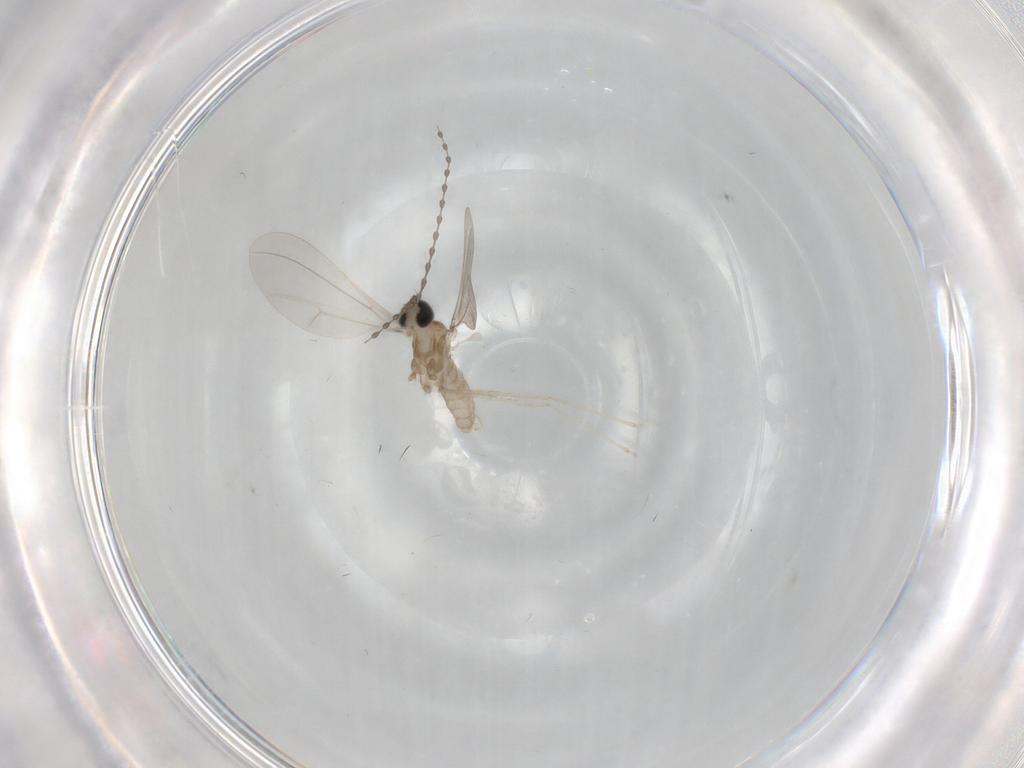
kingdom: Animalia
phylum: Arthropoda
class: Insecta
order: Diptera
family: Cecidomyiidae
